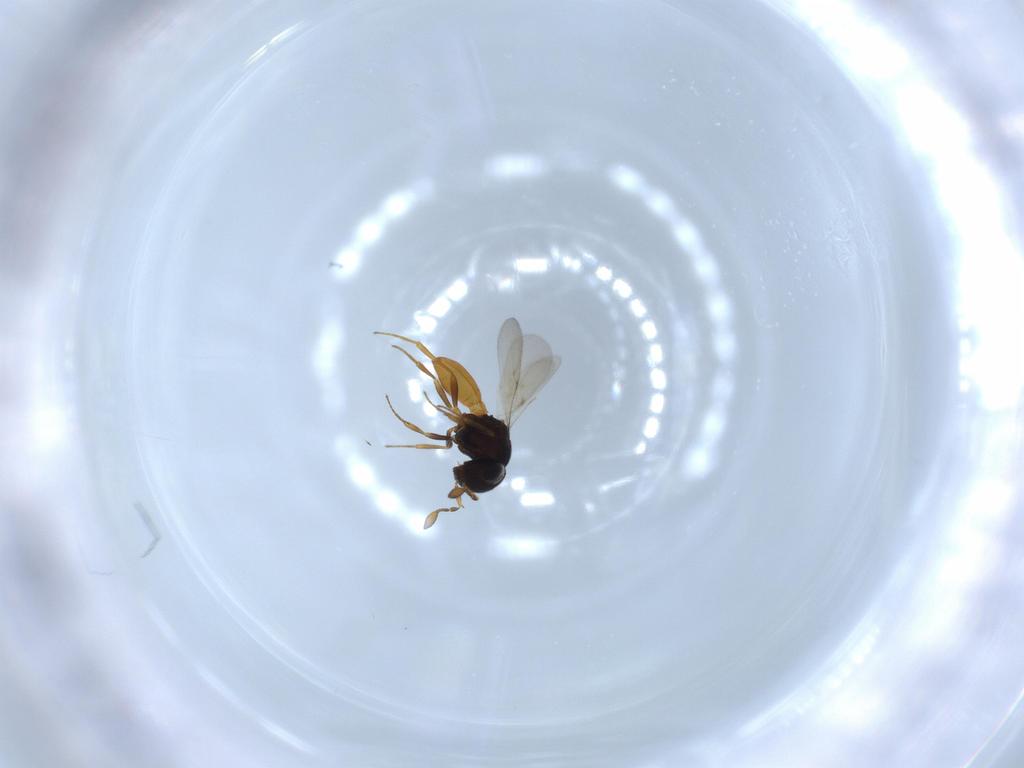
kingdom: Animalia
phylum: Arthropoda
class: Insecta
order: Hymenoptera
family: Scelionidae
